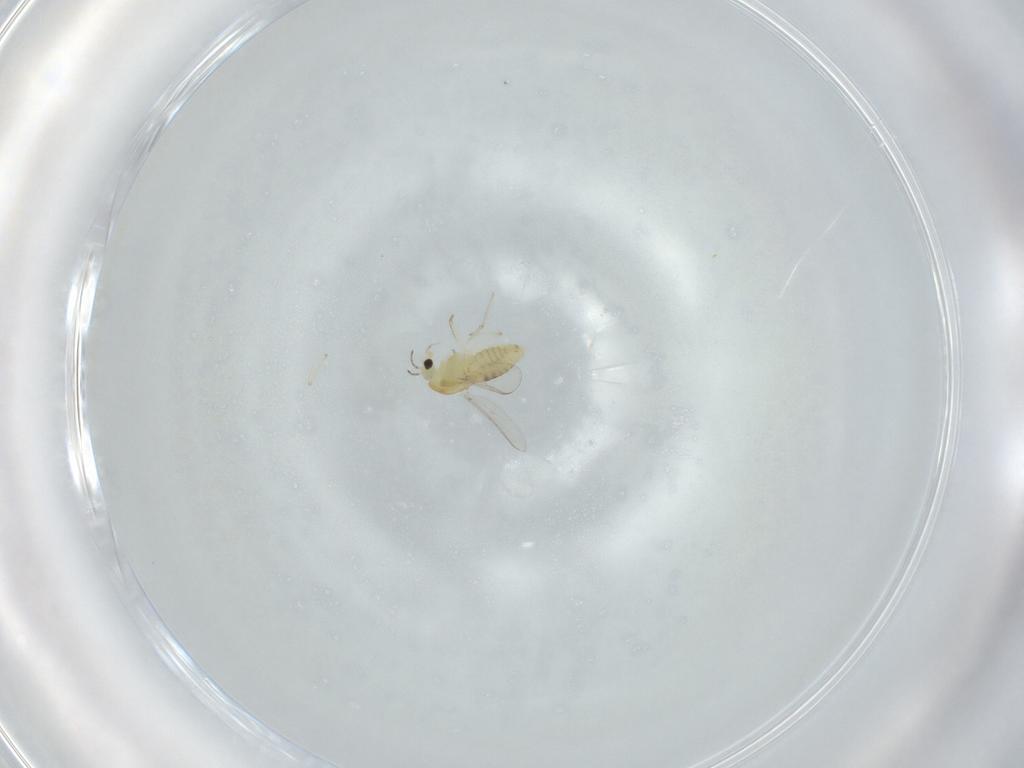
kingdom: Animalia
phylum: Arthropoda
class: Insecta
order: Diptera
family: Chironomidae
